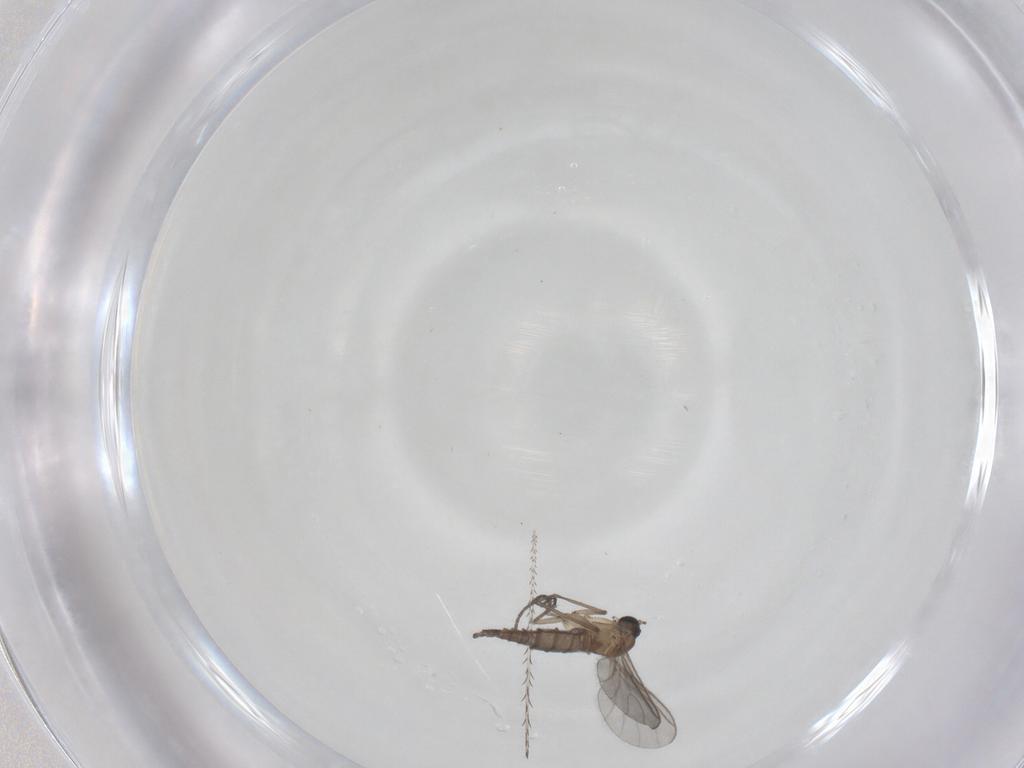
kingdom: Animalia
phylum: Arthropoda
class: Insecta
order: Diptera
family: Sciaridae
